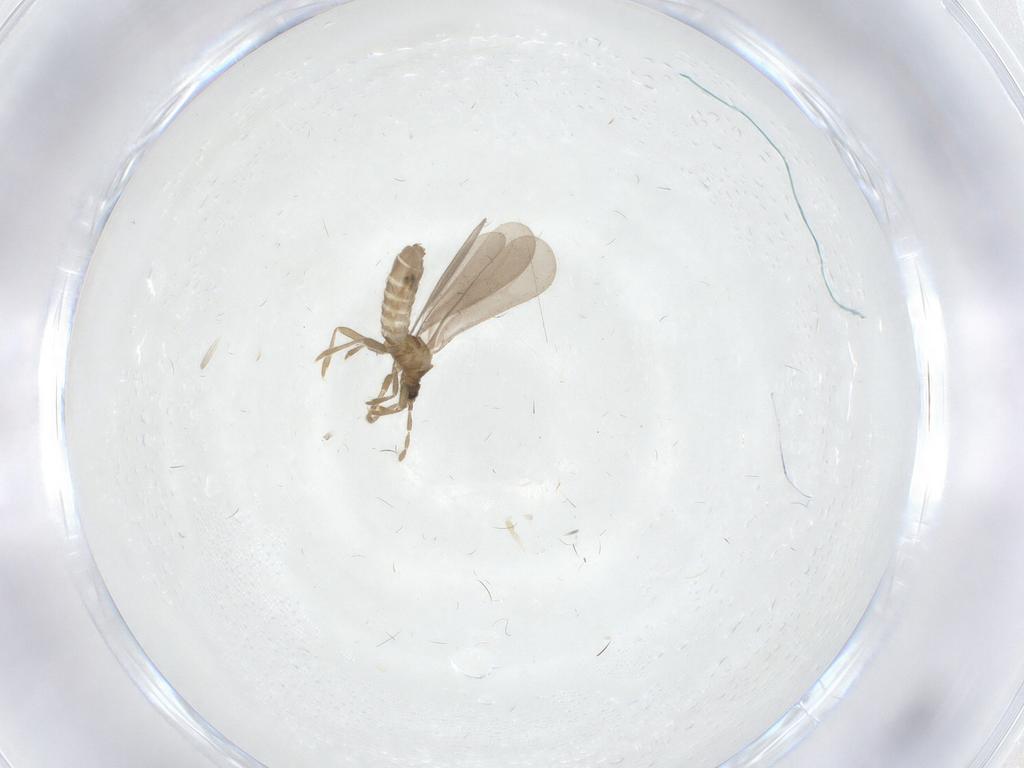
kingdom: Animalia
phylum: Arthropoda
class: Insecta
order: Hemiptera
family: Enicocephalidae
